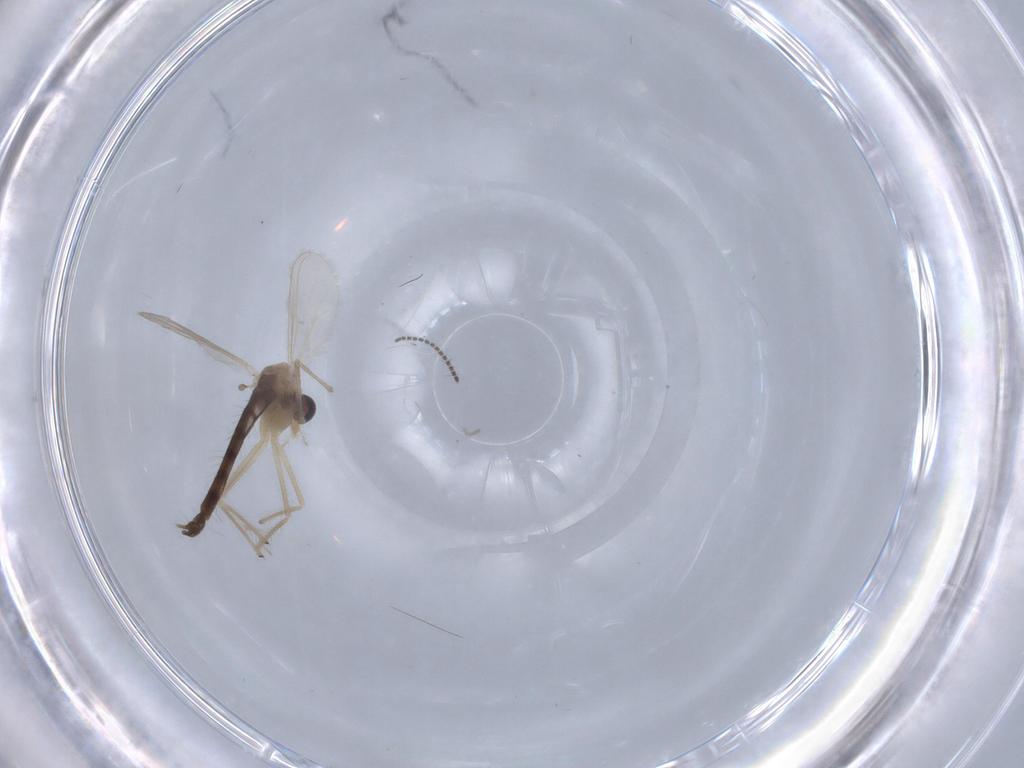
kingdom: Animalia
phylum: Arthropoda
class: Insecta
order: Diptera
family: Chironomidae
